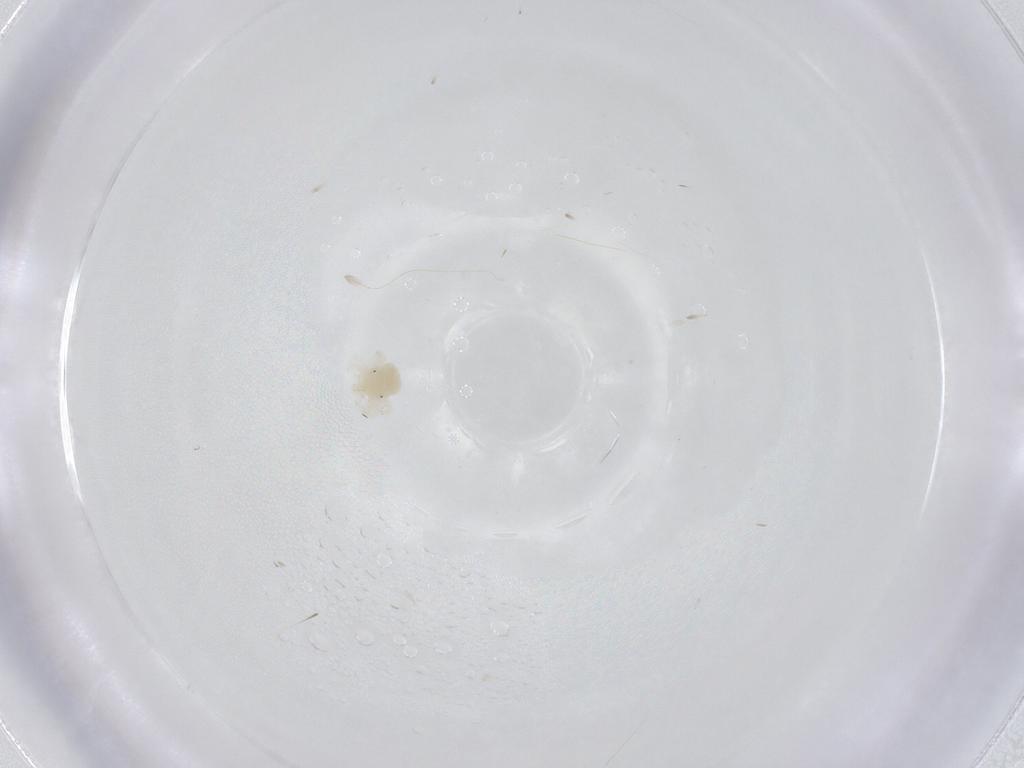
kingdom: Animalia
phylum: Arthropoda
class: Arachnida
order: Trombidiformes
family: Anystidae
